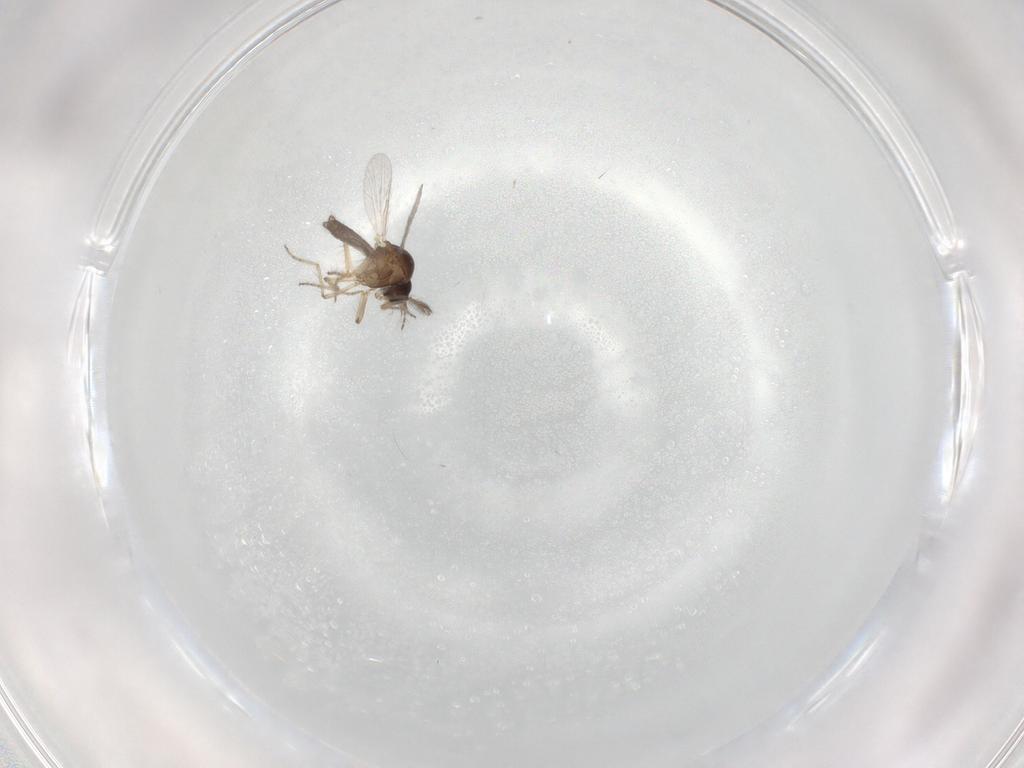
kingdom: Animalia
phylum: Arthropoda
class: Insecta
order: Diptera
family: Ceratopogonidae
